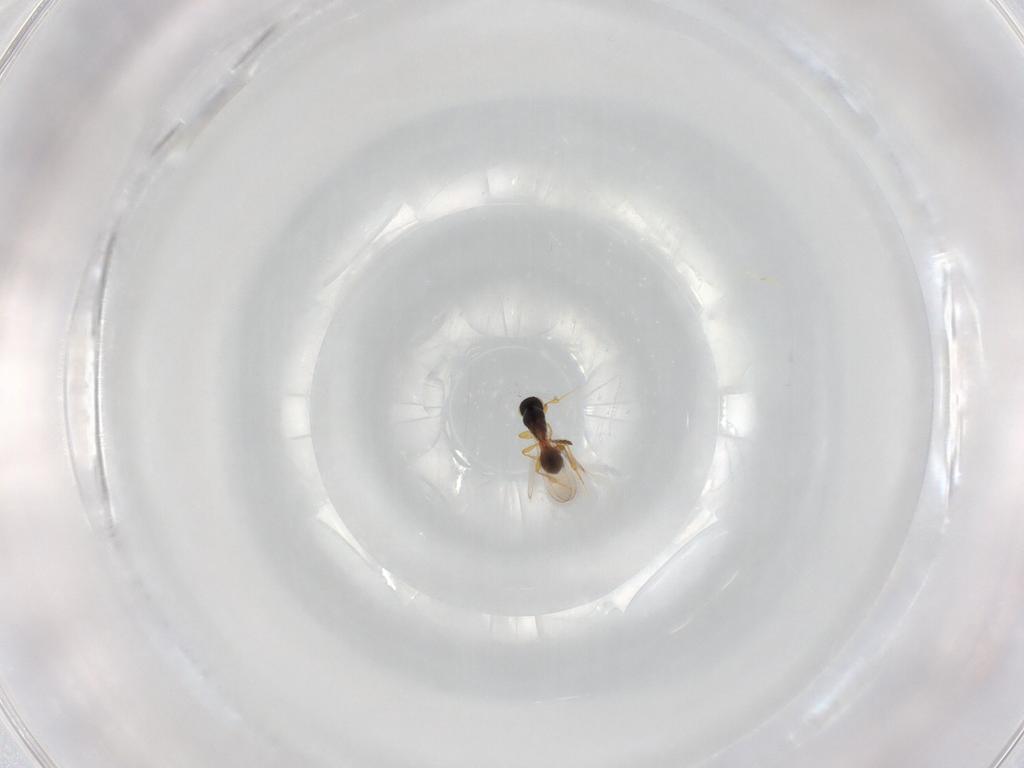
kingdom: Animalia
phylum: Arthropoda
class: Insecta
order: Hymenoptera
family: Platygastridae
